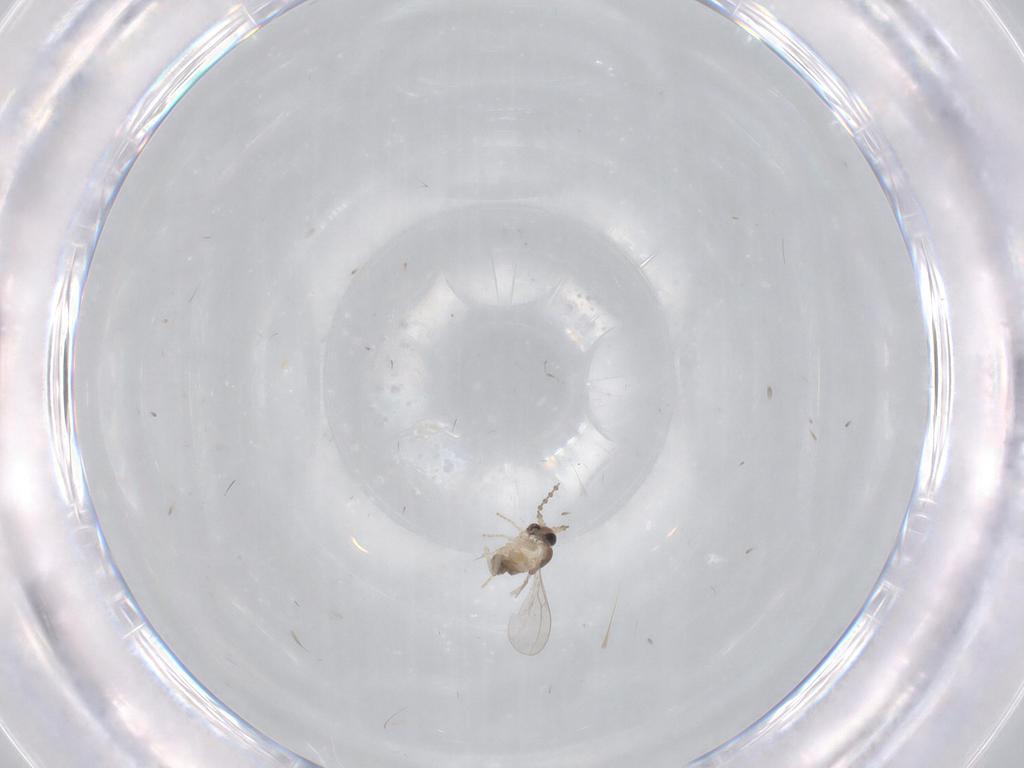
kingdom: Animalia
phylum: Arthropoda
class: Insecta
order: Diptera
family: Cecidomyiidae
